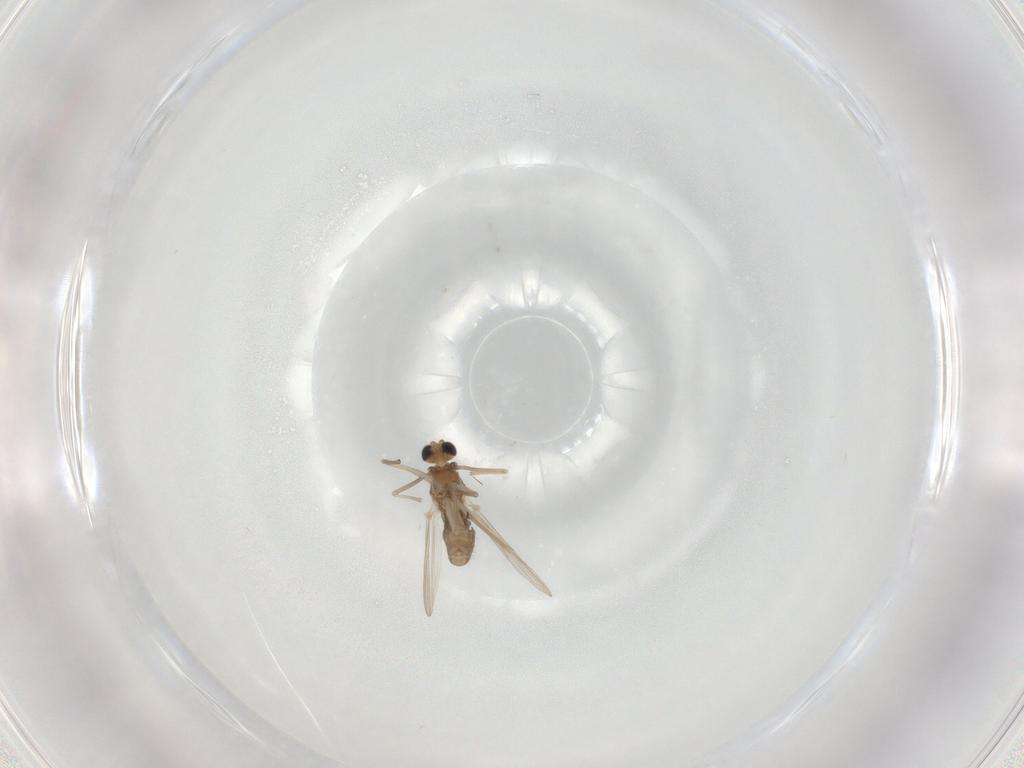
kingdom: Animalia
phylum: Arthropoda
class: Insecta
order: Diptera
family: Chironomidae
